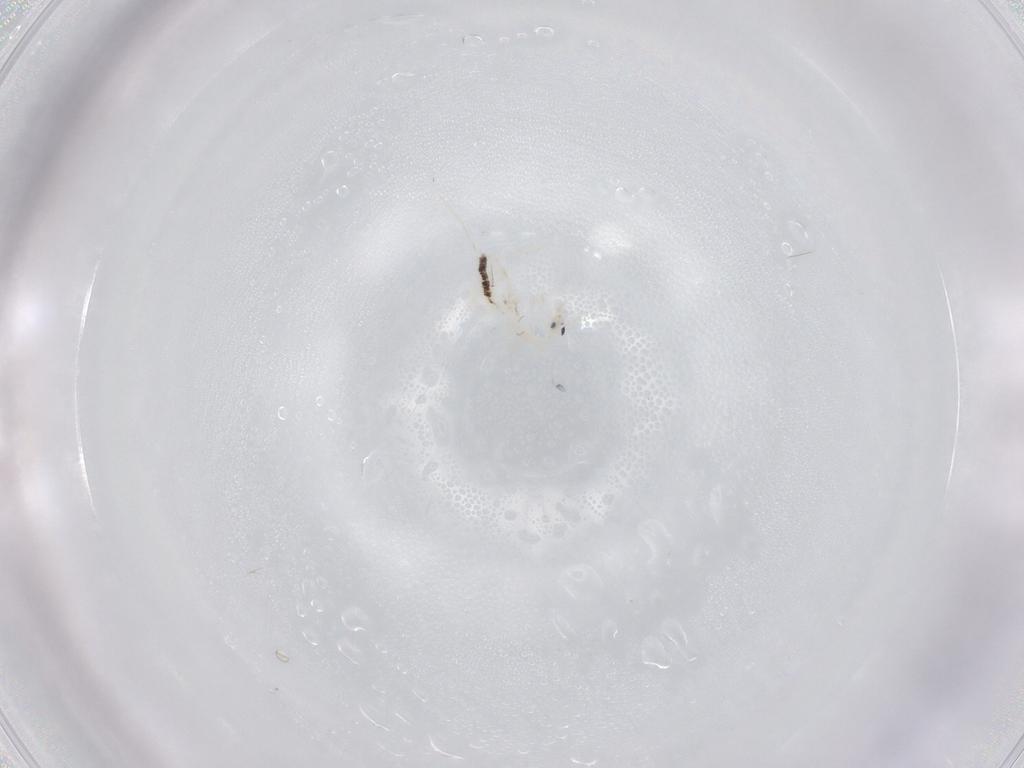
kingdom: Animalia
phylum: Arthropoda
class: Collembola
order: Entomobryomorpha
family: Entomobryidae
